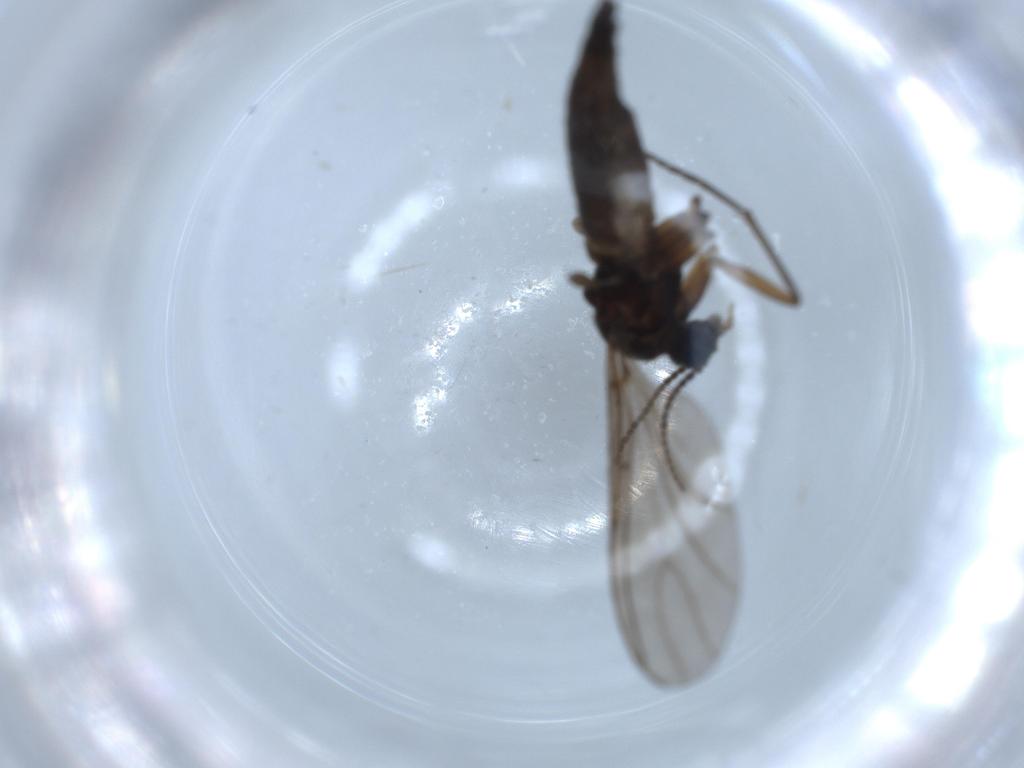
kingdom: Animalia
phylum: Arthropoda
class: Insecta
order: Diptera
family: Sciaridae
